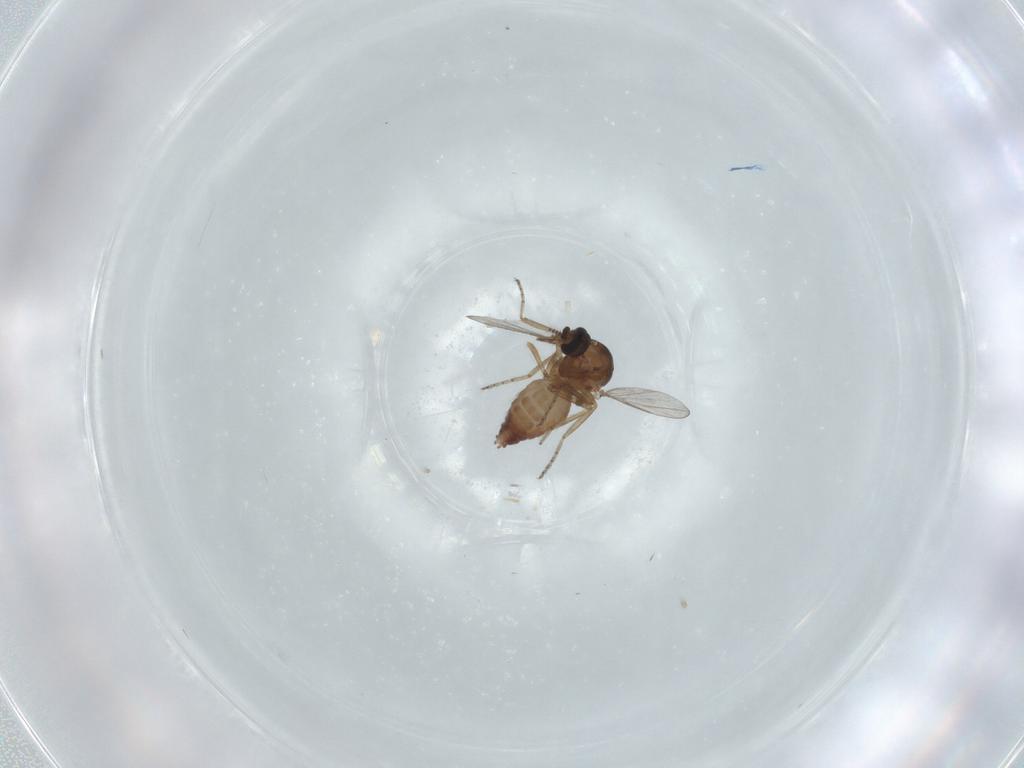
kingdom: Animalia
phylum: Arthropoda
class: Insecta
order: Diptera
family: Ceratopogonidae
